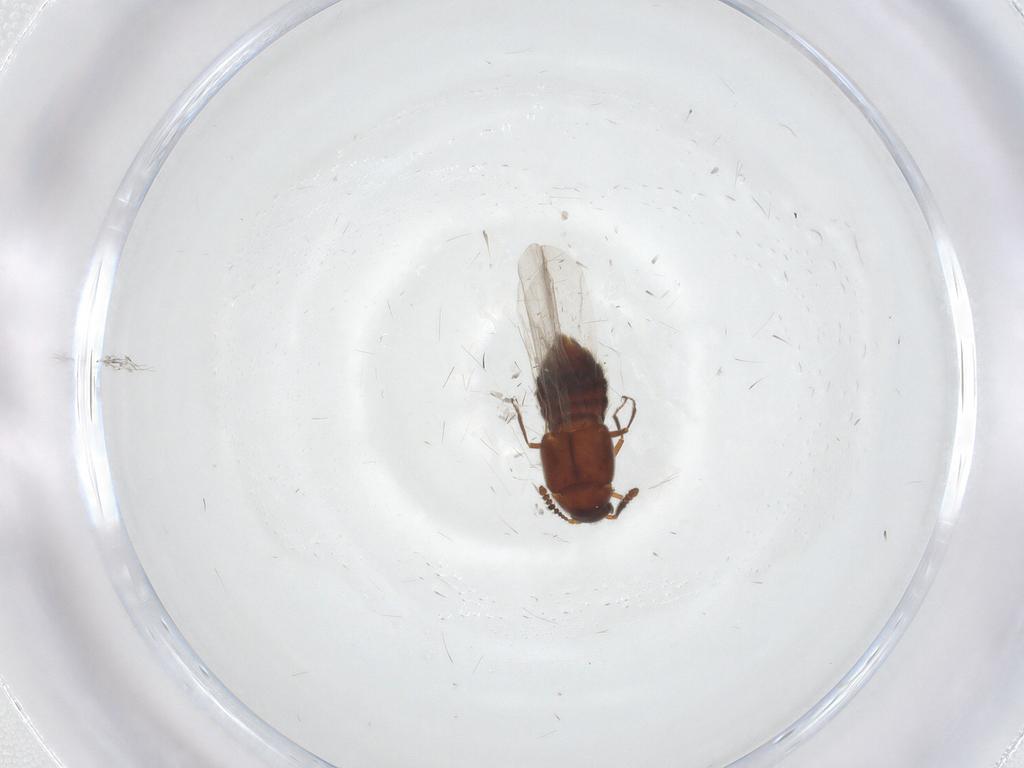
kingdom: Animalia
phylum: Arthropoda
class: Insecta
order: Coleoptera
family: Staphylinidae
